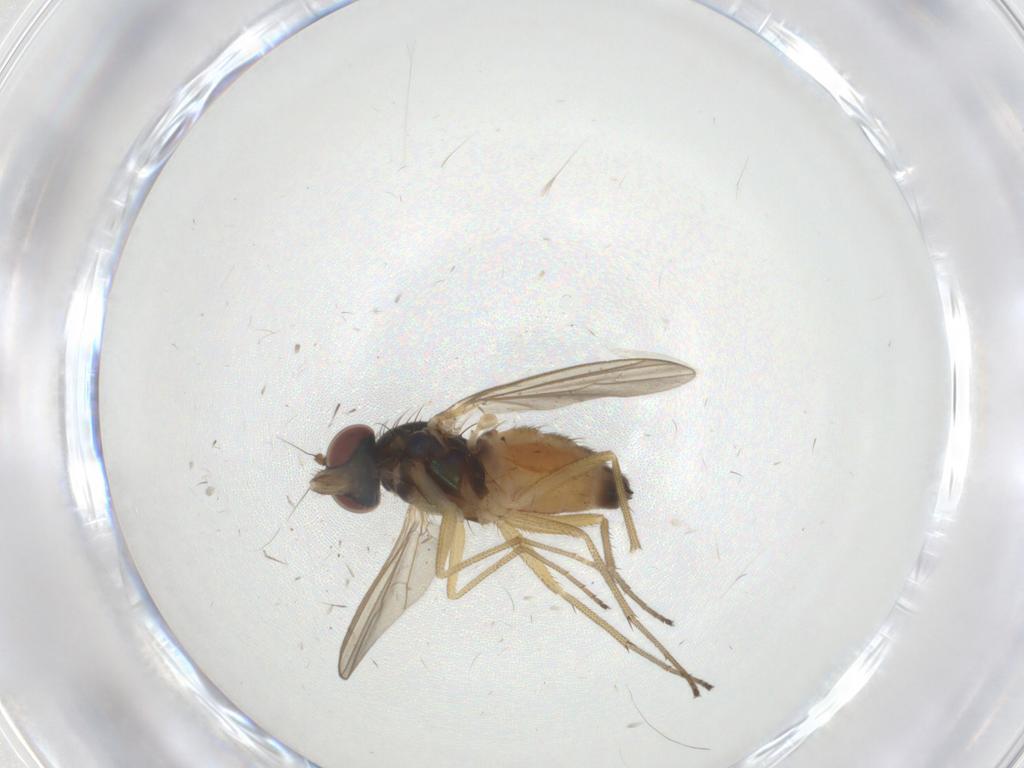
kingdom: Animalia
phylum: Arthropoda
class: Insecta
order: Diptera
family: Dolichopodidae
